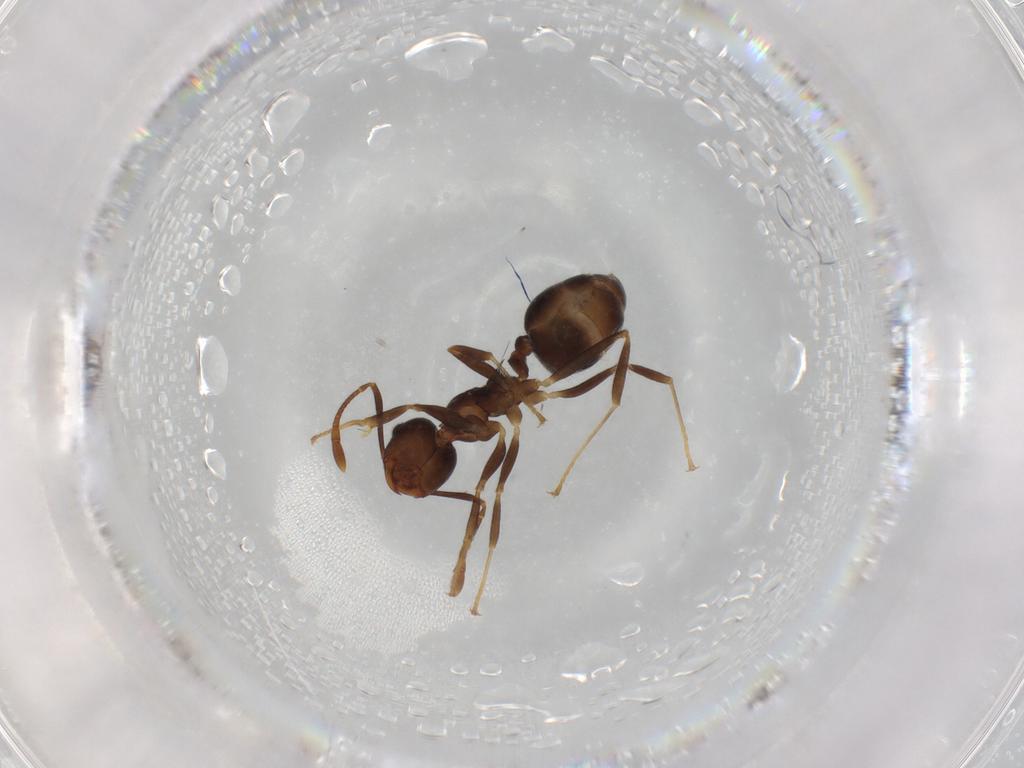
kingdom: Animalia
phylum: Arthropoda
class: Insecta
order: Hymenoptera
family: Formicidae
